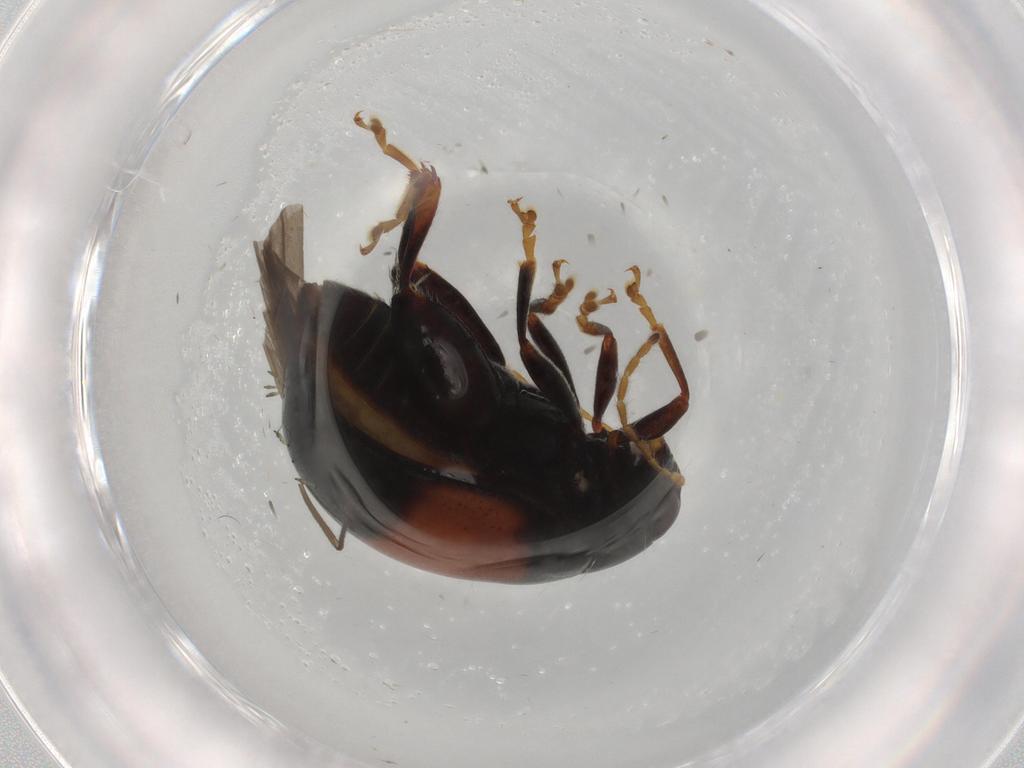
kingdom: Animalia
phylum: Arthropoda
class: Insecta
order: Coleoptera
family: Chrysomelidae
